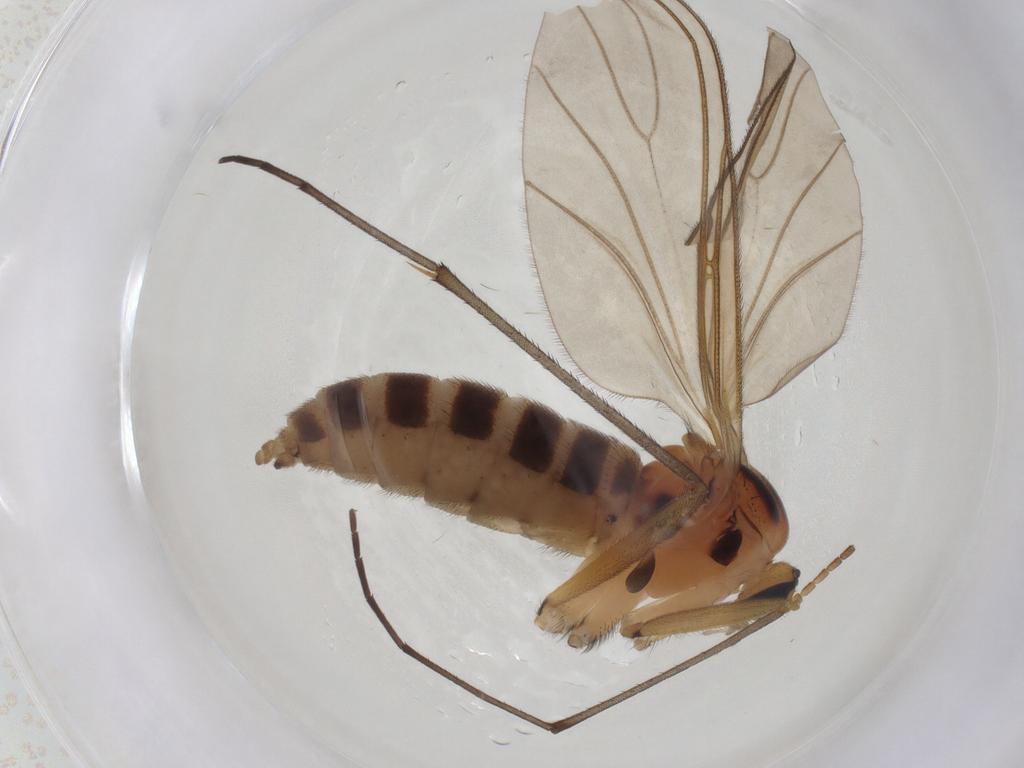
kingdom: Animalia
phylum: Arthropoda
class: Insecta
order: Diptera
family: Sciaridae
